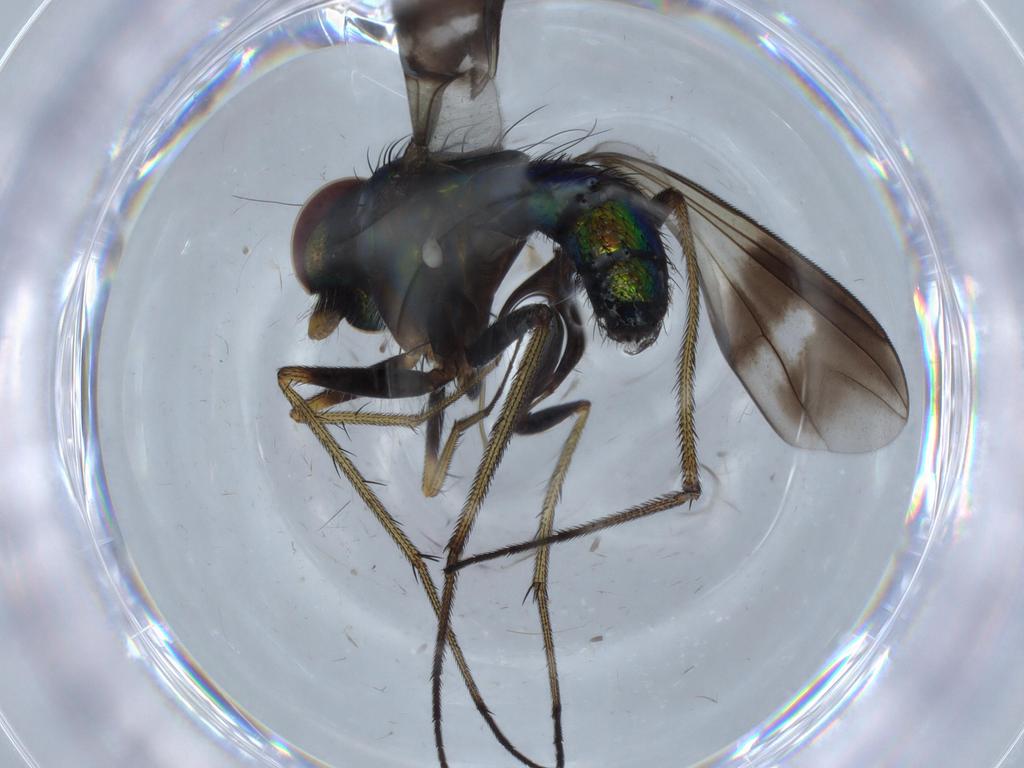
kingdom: Animalia
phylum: Arthropoda
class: Insecta
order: Diptera
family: Dolichopodidae
